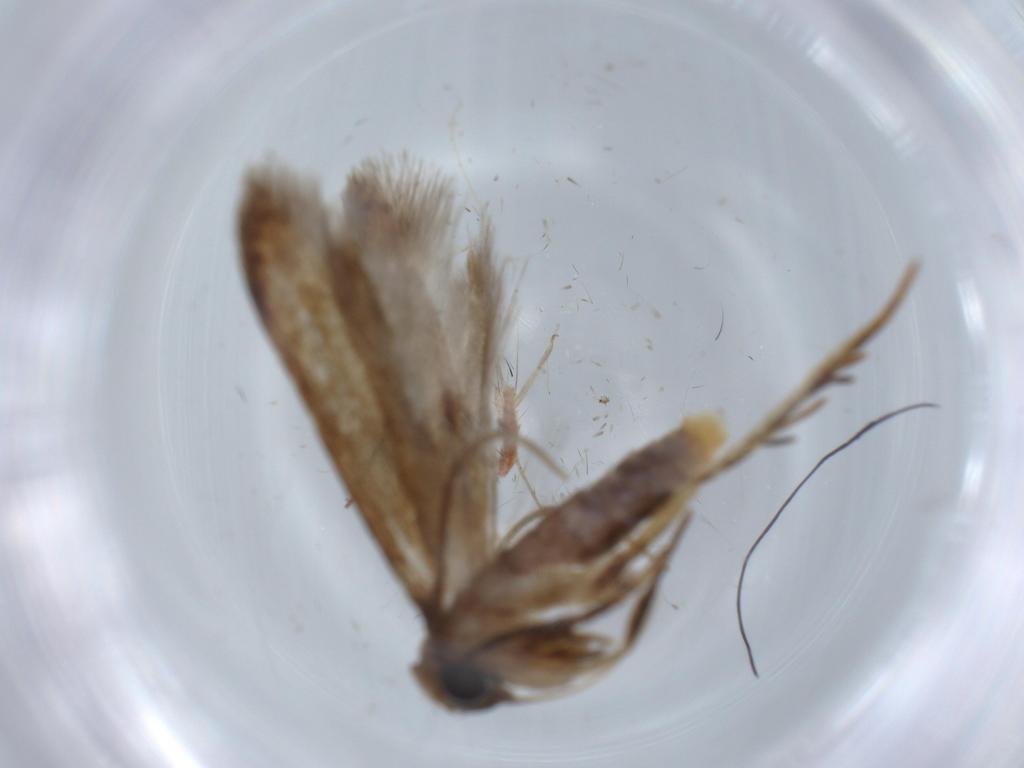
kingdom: Animalia
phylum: Arthropoda
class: Insecta
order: Lepidoptera
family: Blastobasidae
